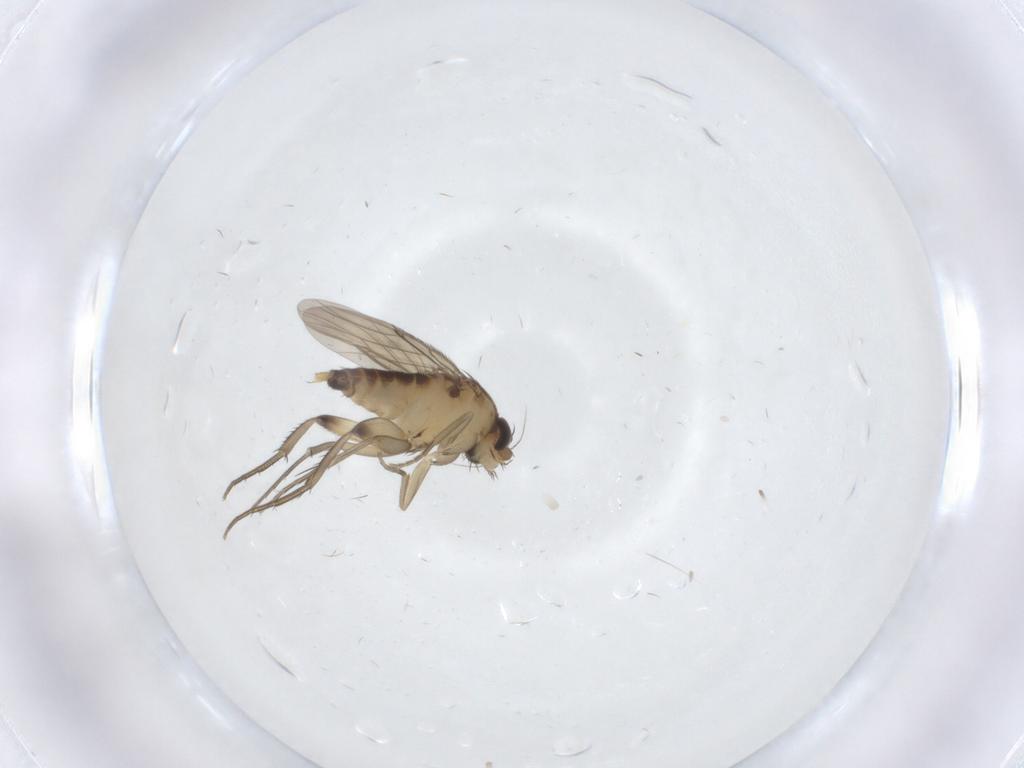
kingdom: Animalia
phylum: Arthropoda
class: Insecta
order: Diptera
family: Cecidomyiidae
